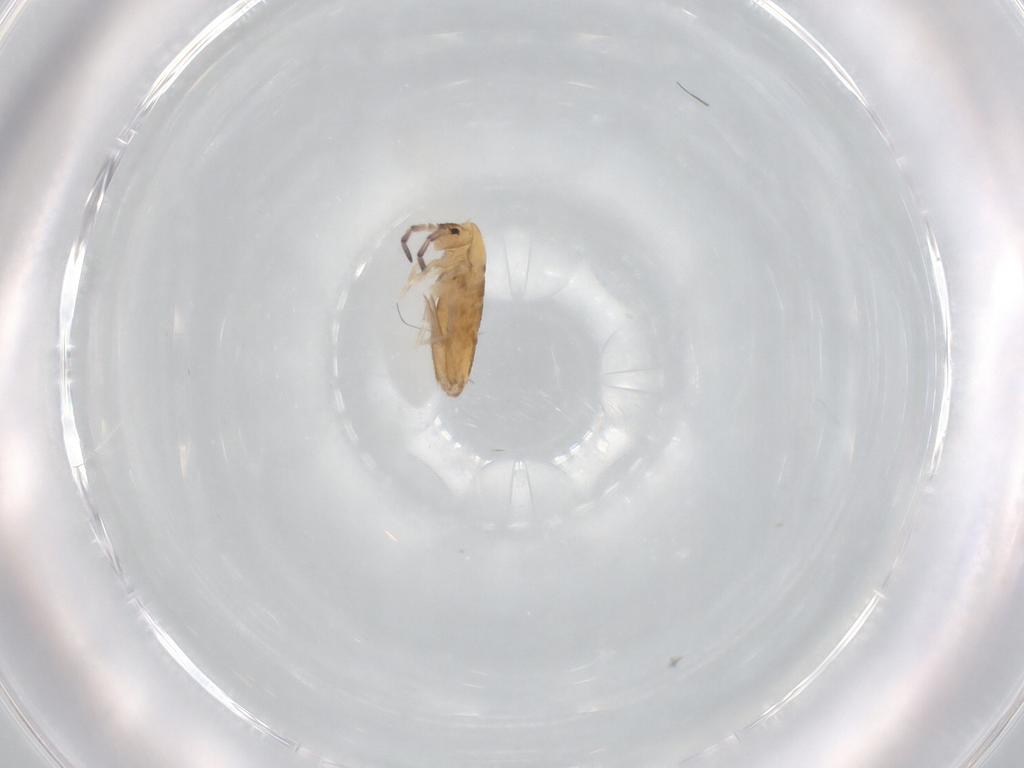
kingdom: Animalia
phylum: Arthropoda
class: Collembola
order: Entomobryomorpha
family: Entomobryidae
